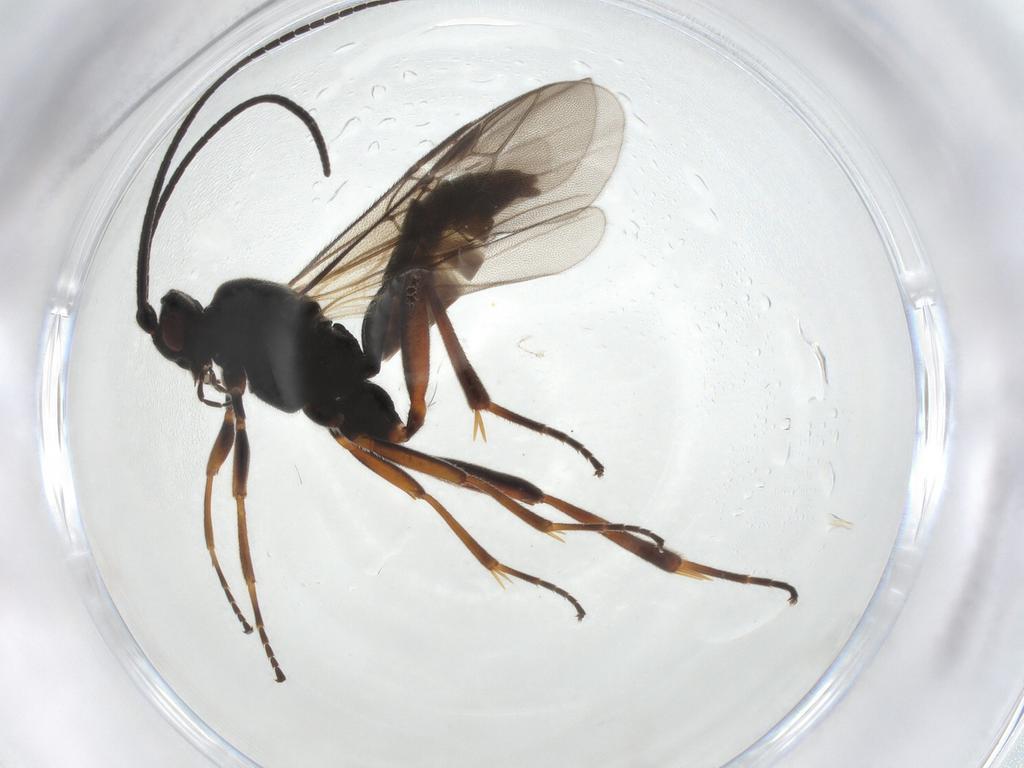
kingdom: Animalia
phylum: Arthropoda
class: Insecta
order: Hymenoptera
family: Braconidae
